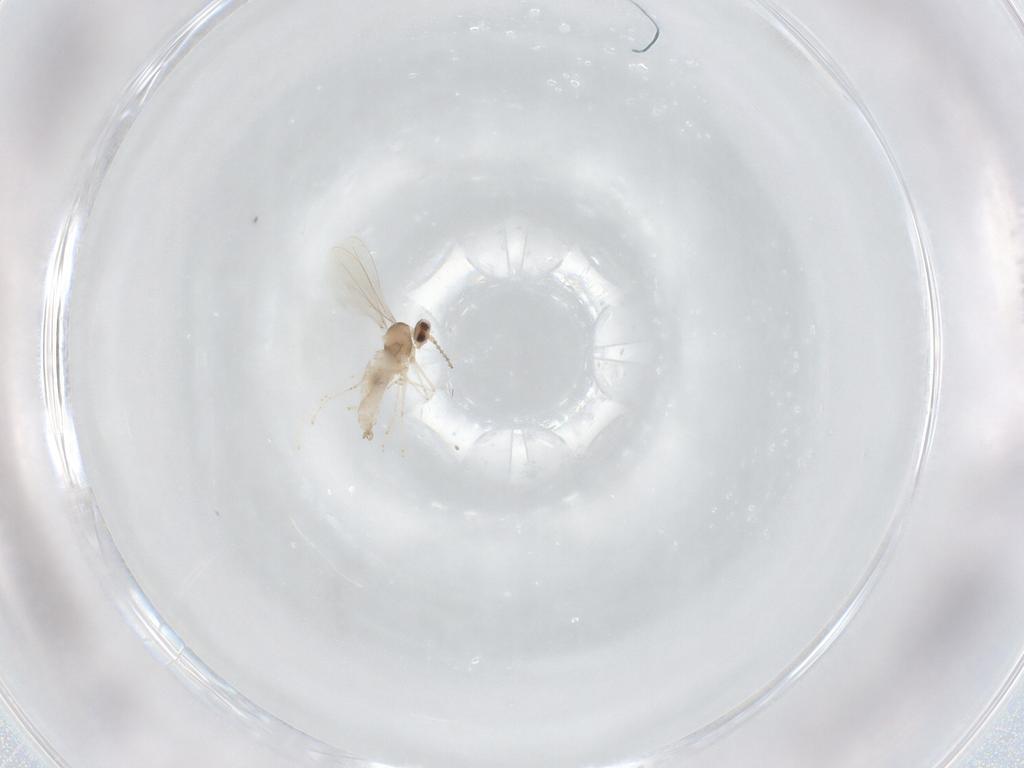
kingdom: Animalia
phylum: Arthropoda
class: Insecta
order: Diptera
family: Cecidomyiidae
